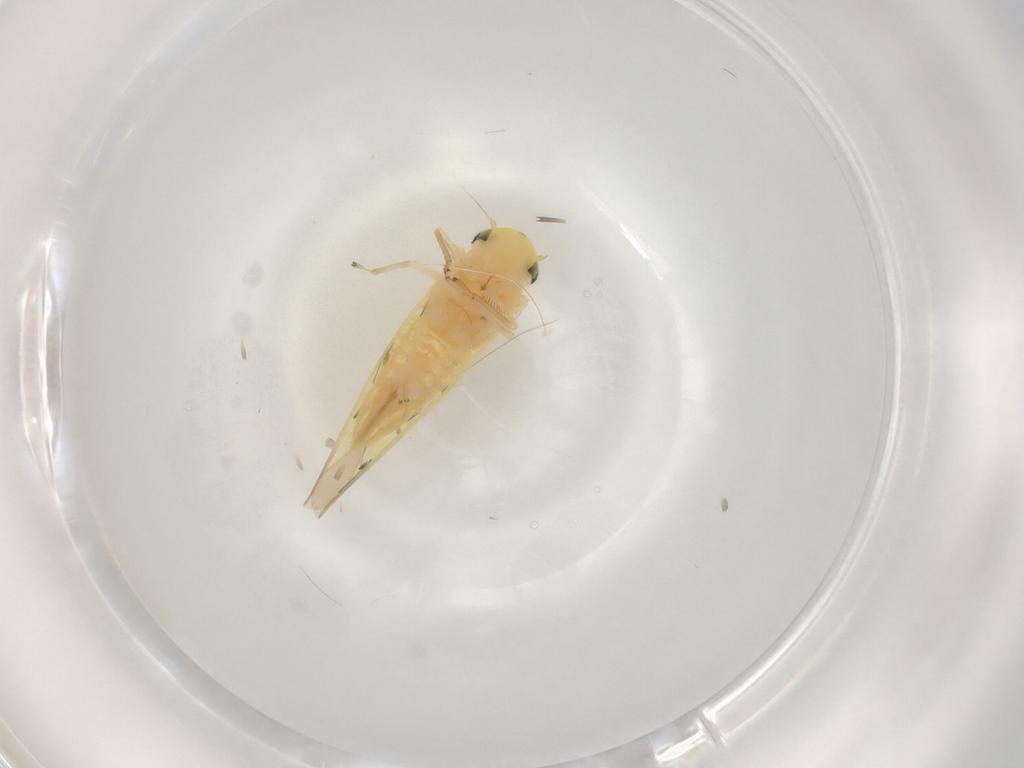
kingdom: Animalia
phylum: Arthropoda
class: Insecta
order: Hemiptera
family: Cicadellidae
